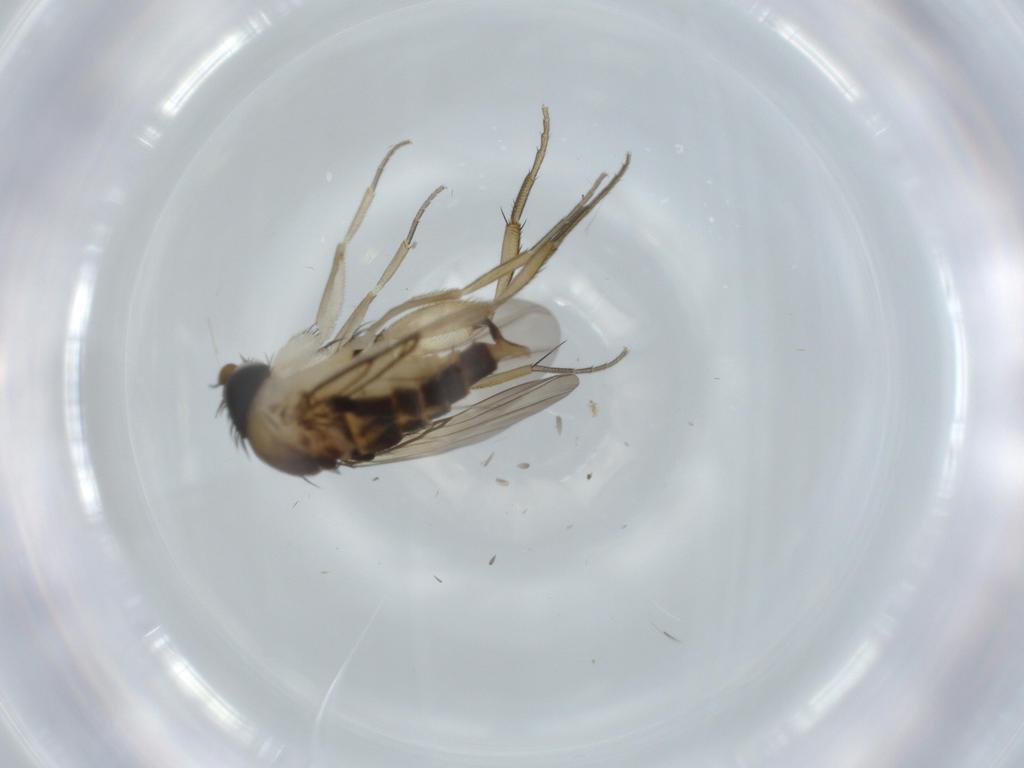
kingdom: Animalia
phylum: Arthropoda
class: Insecta
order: Diptera
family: Phoridae
